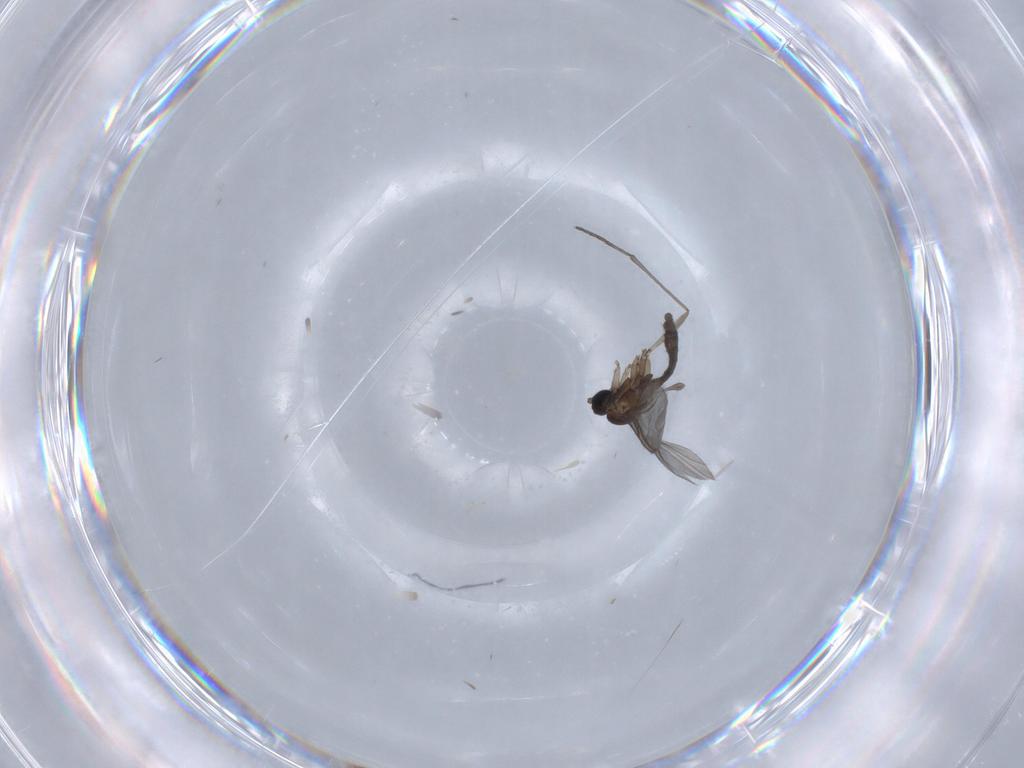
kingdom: Animalia
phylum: Arthropoda
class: Insecta
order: Diptera
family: Sciaridae
